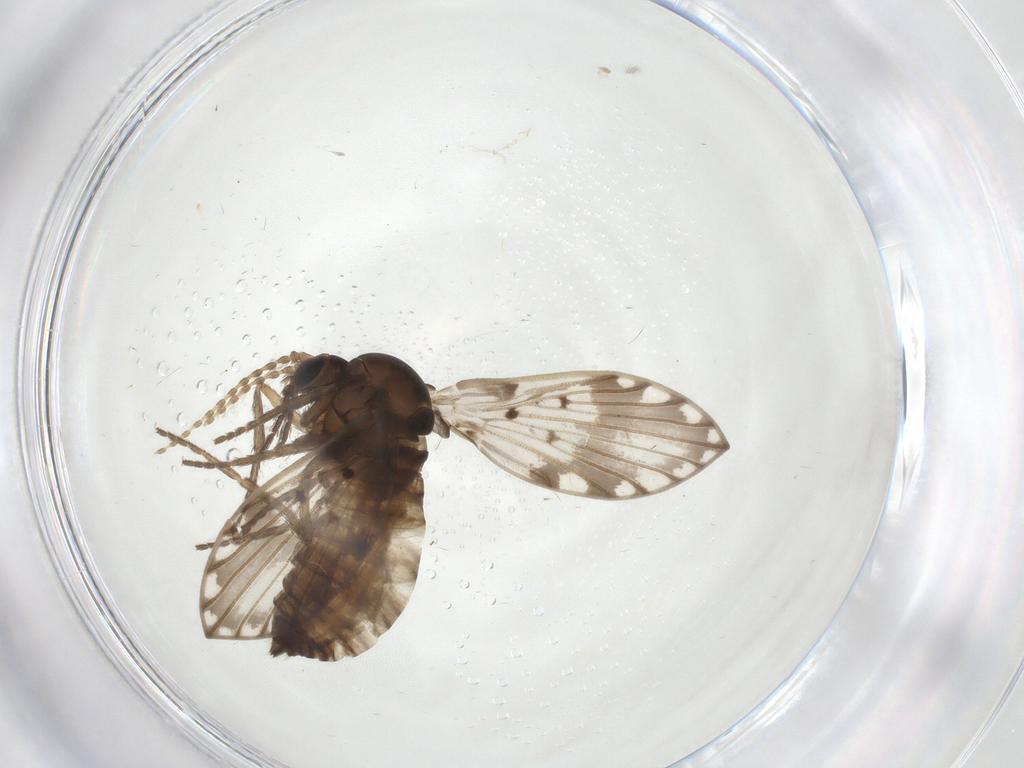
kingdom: Animalia
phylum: Arthropoda
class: Insecta
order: Diptera
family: Psychodidae
